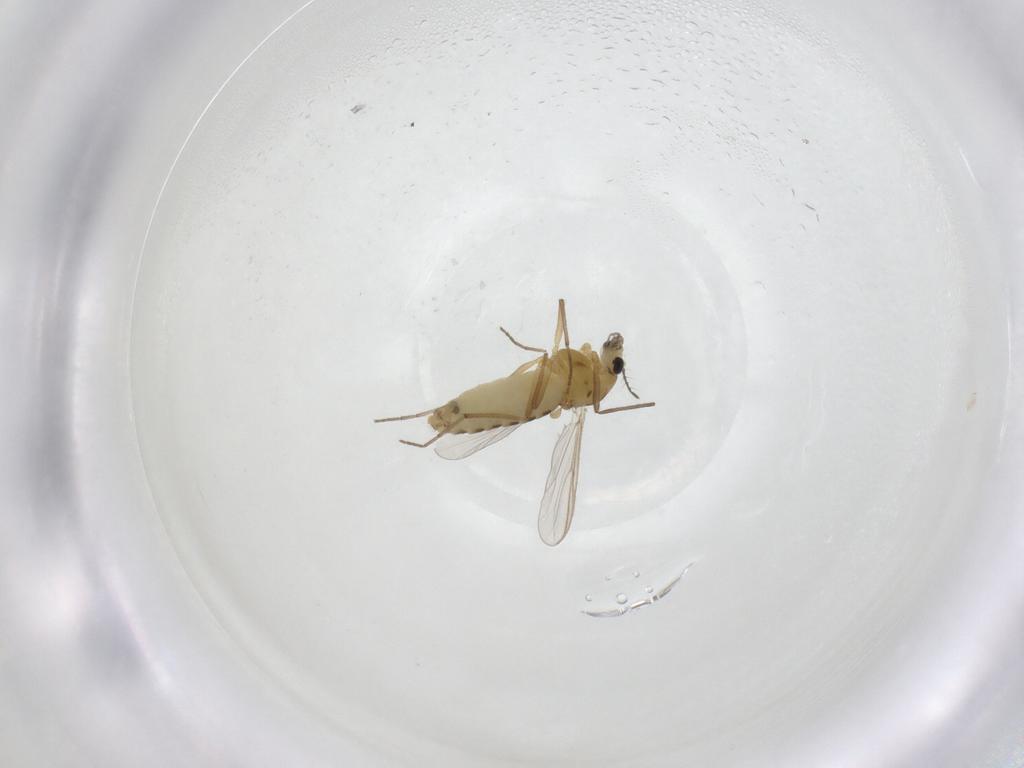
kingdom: Animalia
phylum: Arthropoda
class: Insecta
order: Diptera
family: Chironomidae
